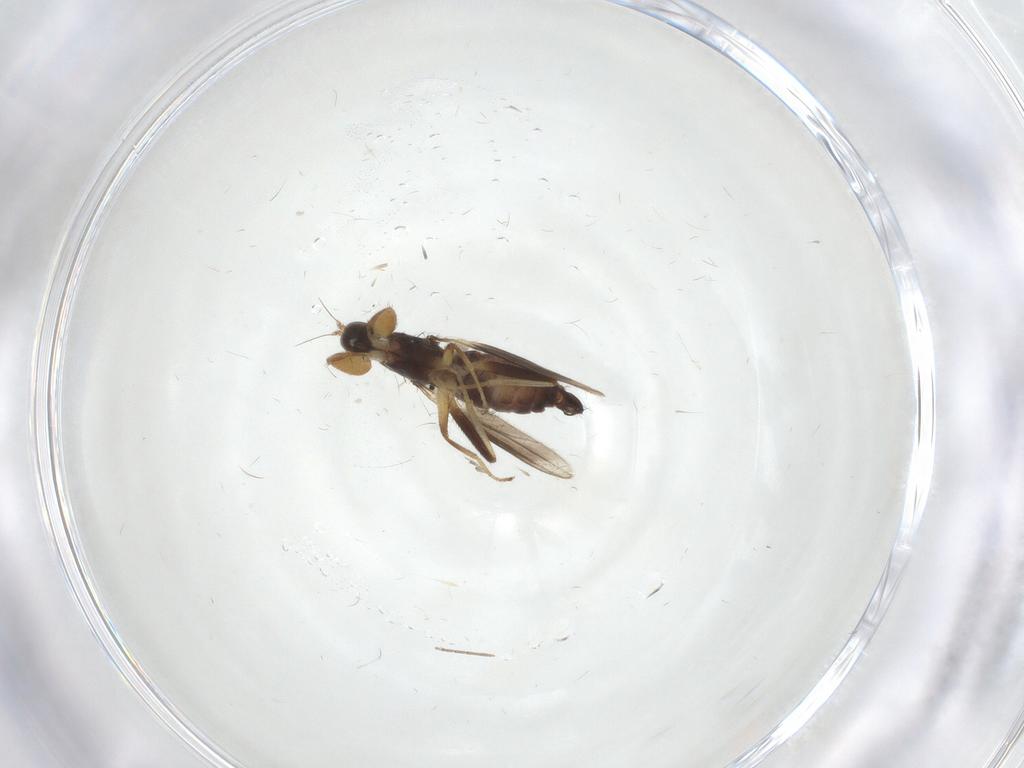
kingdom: Animalia
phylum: Arthropoda
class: Insecta
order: Diptera
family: Hybotidae
